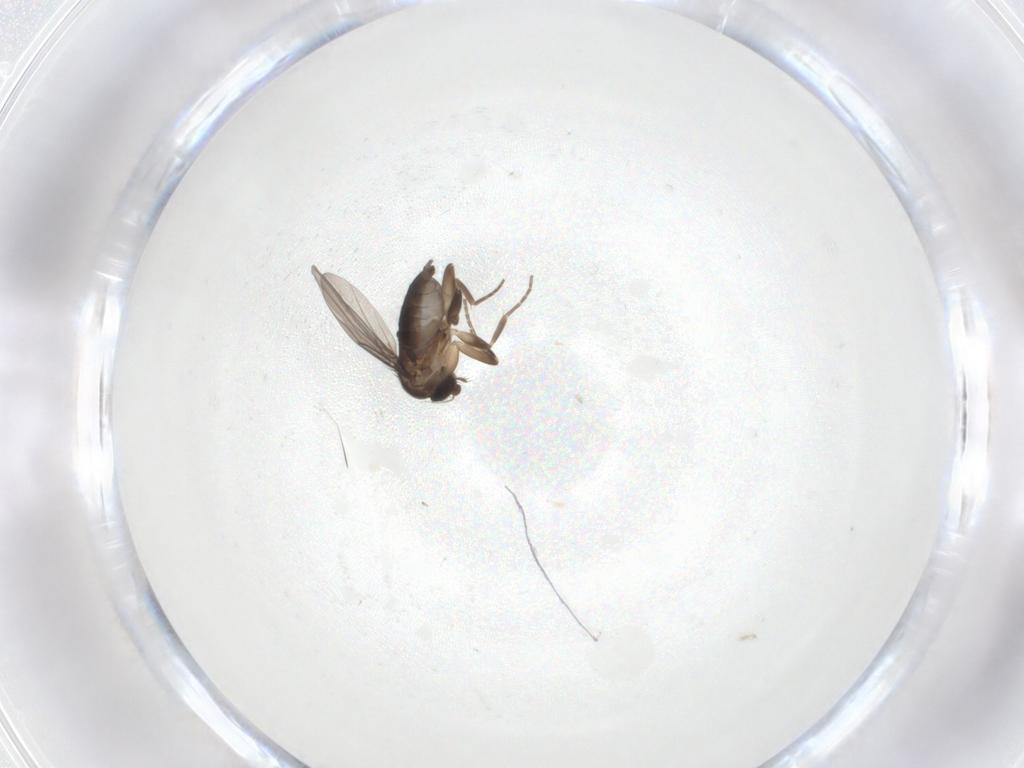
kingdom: Animalia
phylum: Arthropoda
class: Insecta
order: Diptera
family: Phoridae
